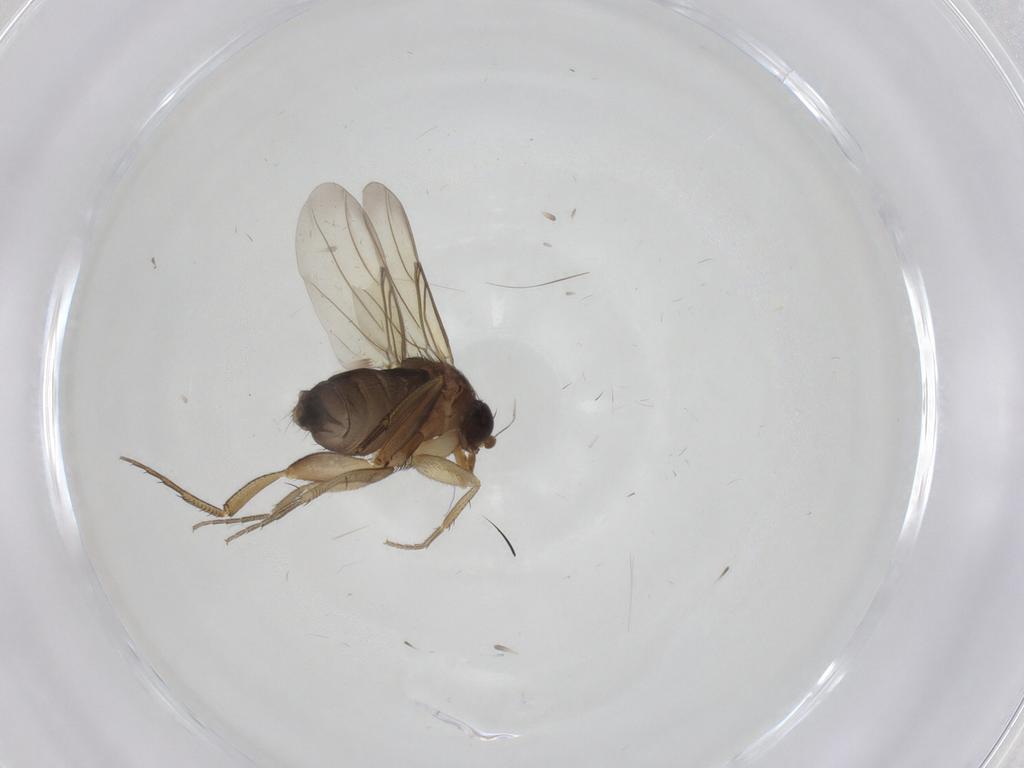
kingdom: Animalia
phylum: Arthropoda
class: Insecta
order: Diptera
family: Phoridae
